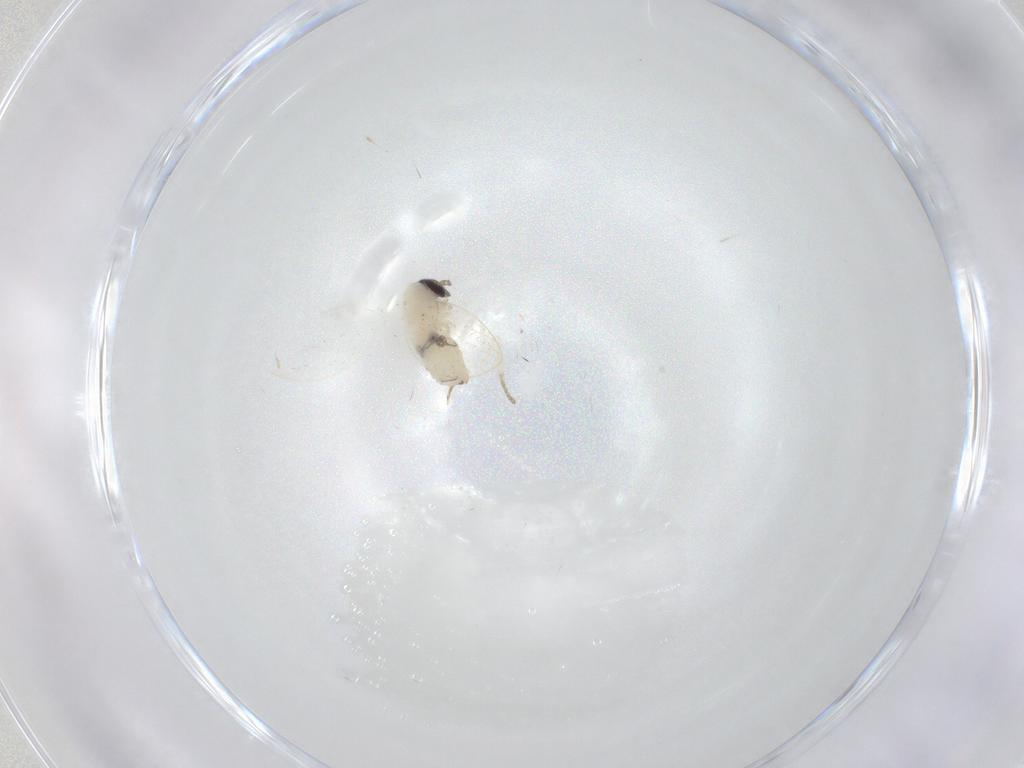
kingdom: Animalia
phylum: Arthropoda
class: Insecta
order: Diptera
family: Psychodidae
